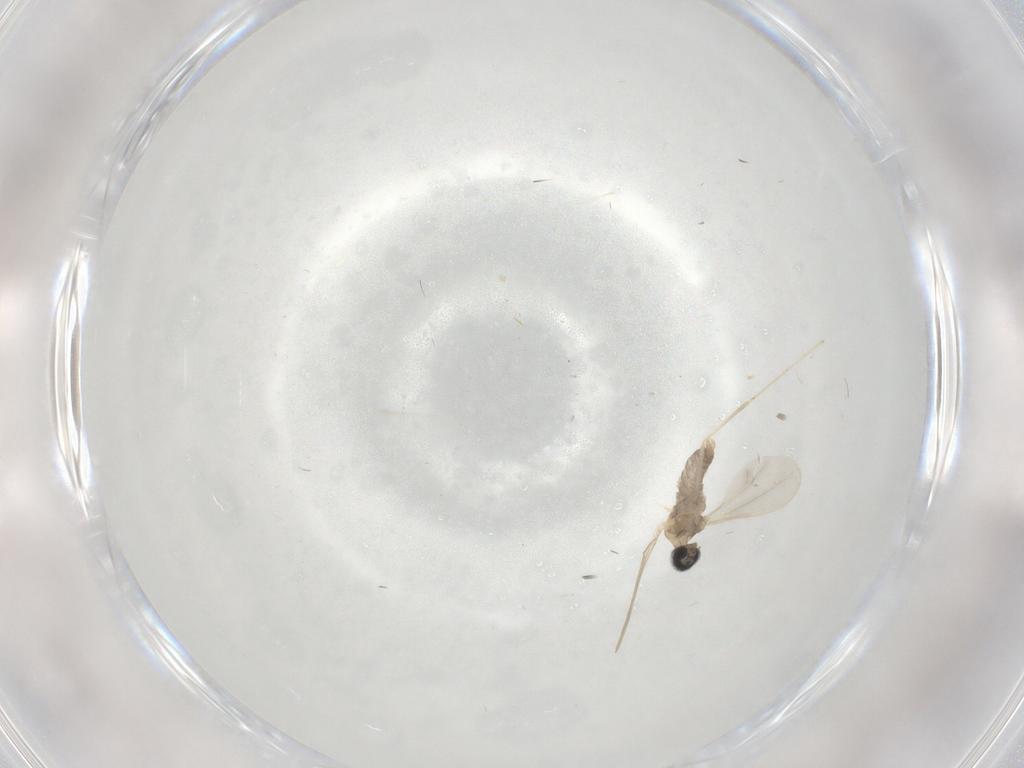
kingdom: Animalia
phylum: Arthropoda
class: Insecta
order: Diptera
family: Cecidomyiidae
